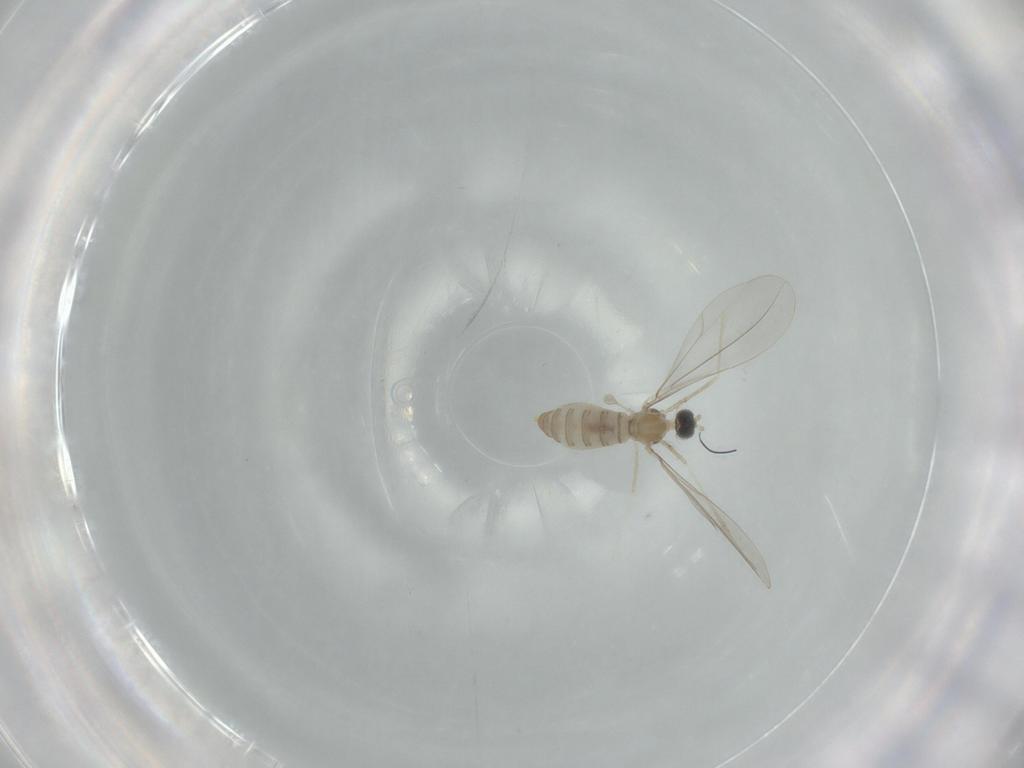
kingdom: Animalia
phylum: Arthropoda
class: Insecta
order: Diptera
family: Cecidomyiidae
